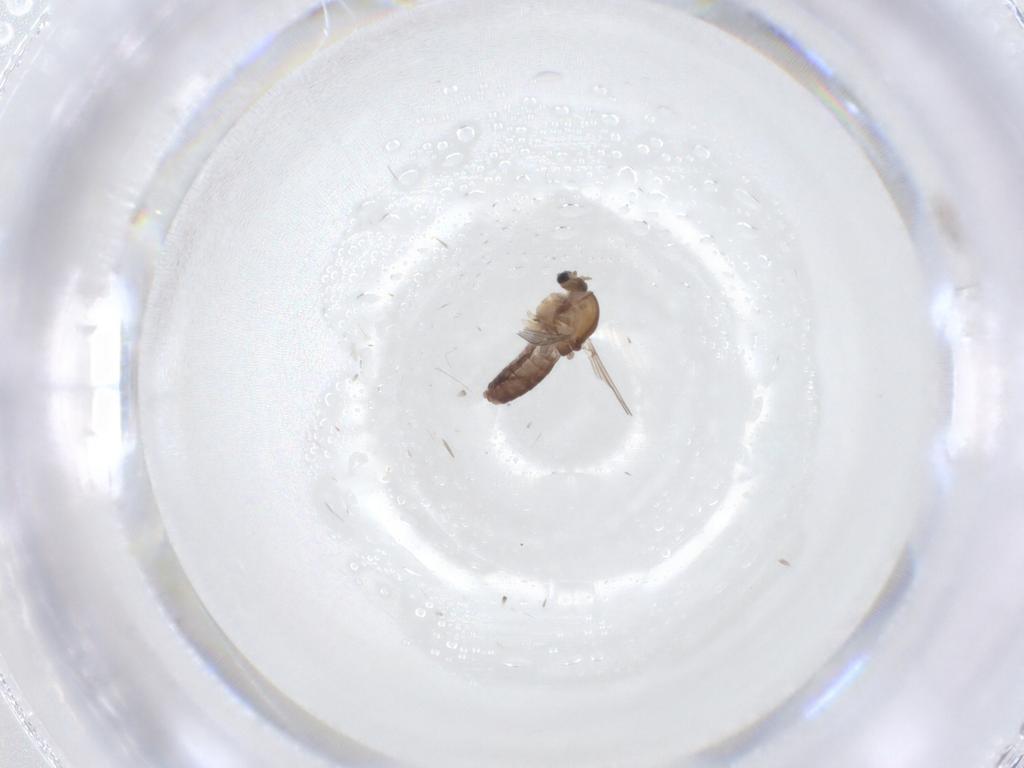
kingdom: Animalia
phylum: Arthropoda
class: Insecta
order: Diptera
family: Chironomidae
